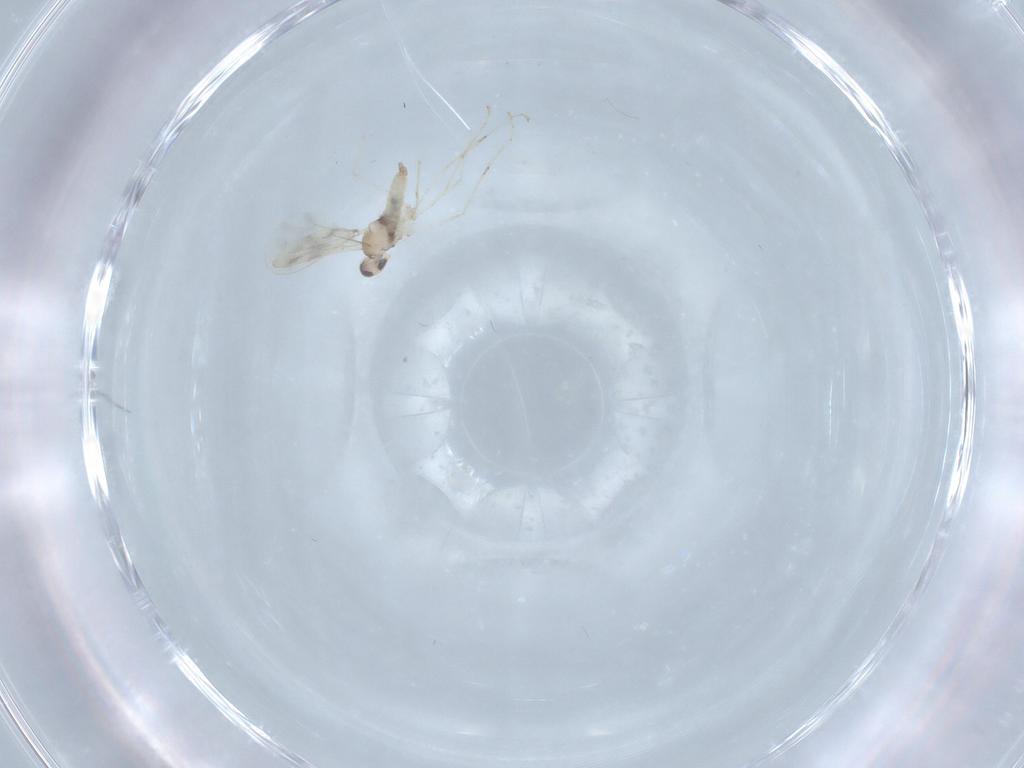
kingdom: Animalia
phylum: Arthropoda
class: Insecta
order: Diptera
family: Cecidomyiidae
